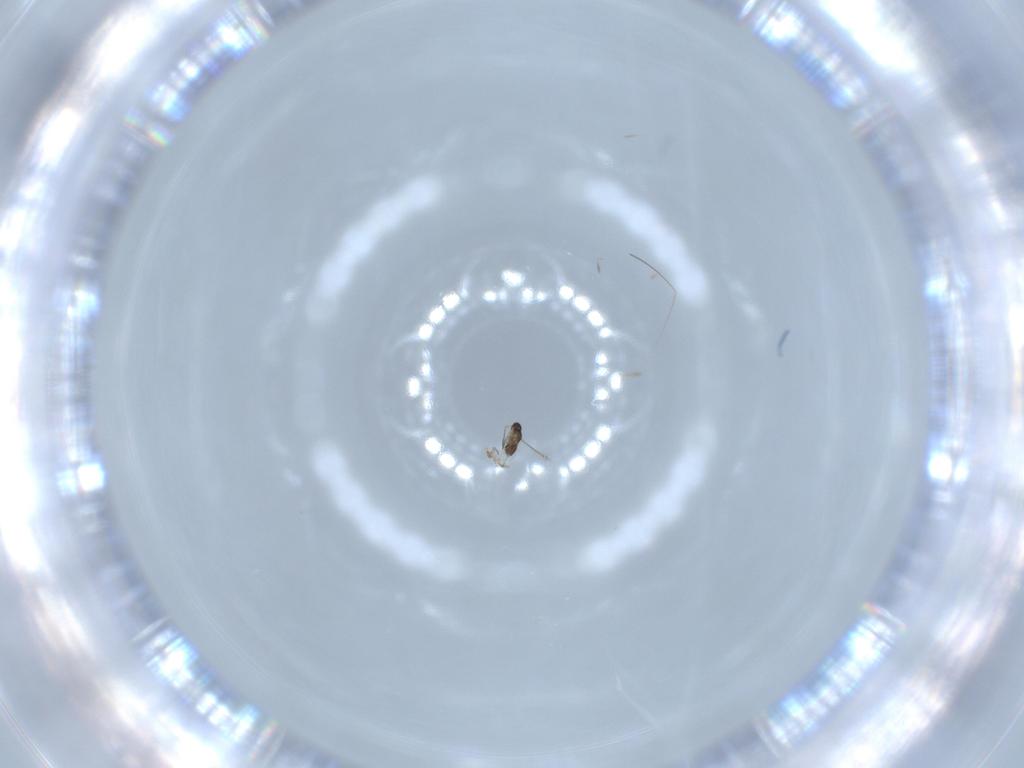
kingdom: Animalia
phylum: Arthropoda
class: Insecta
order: Hymenoptera
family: Mymaridae
